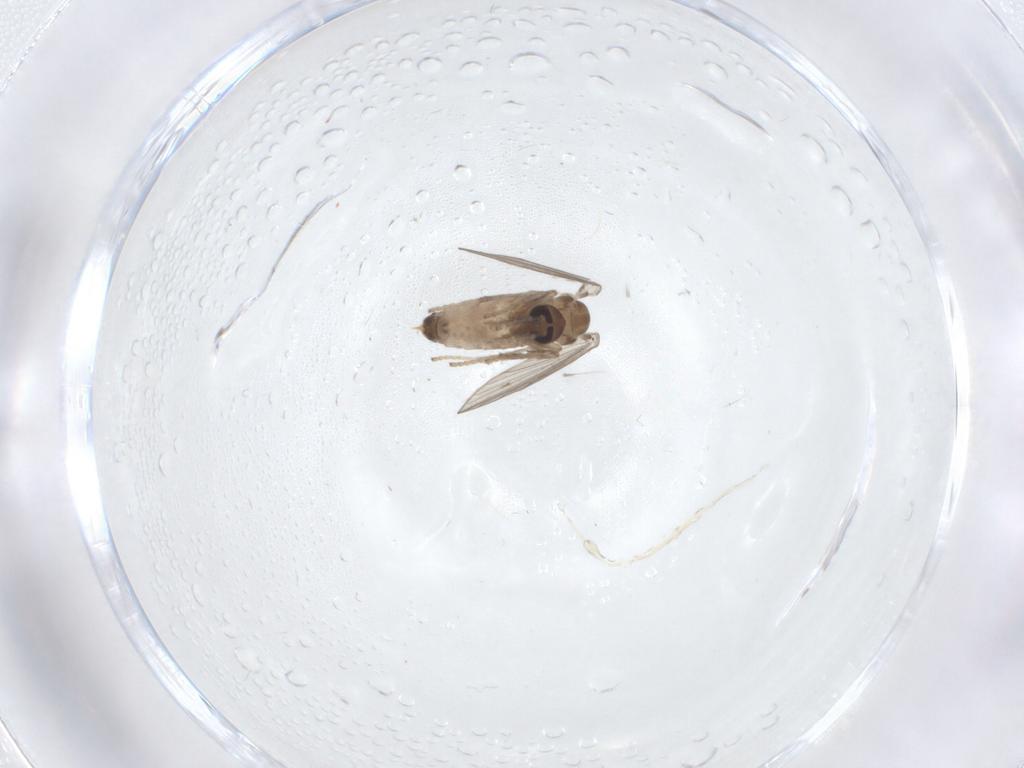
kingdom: Animalia
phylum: Arthropoda
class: Insecta
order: Diptera
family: Psychodidae
